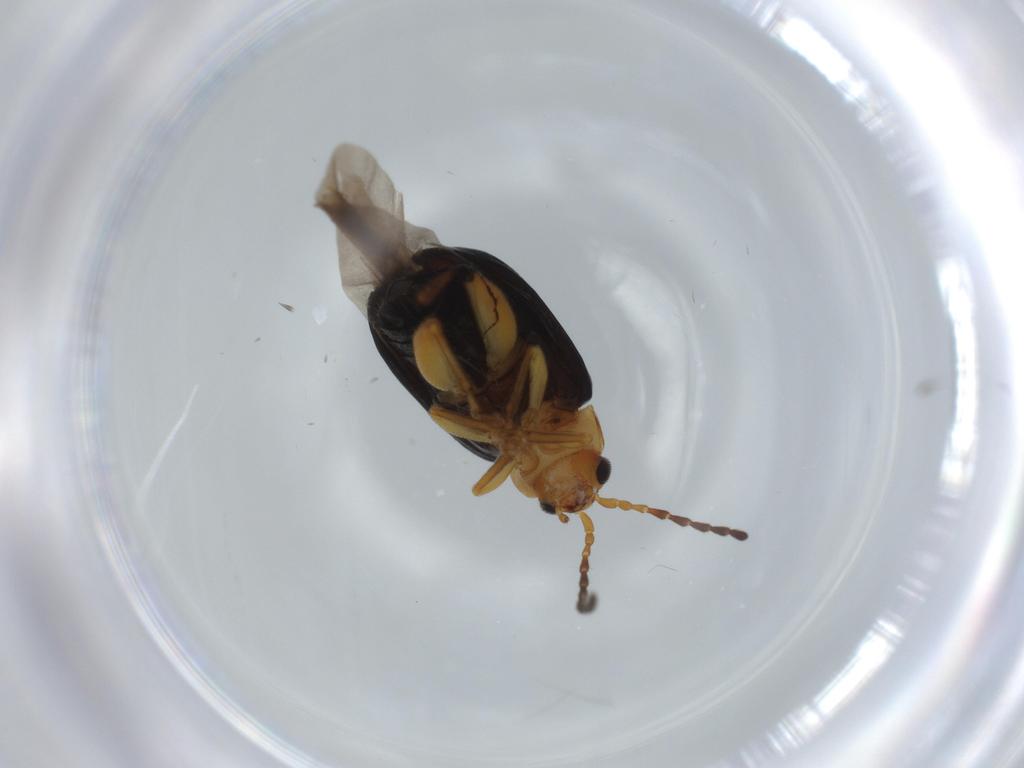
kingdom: Animalia
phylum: Arthropoda
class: Insecta
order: Coleoptera
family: Chrysomelidae
